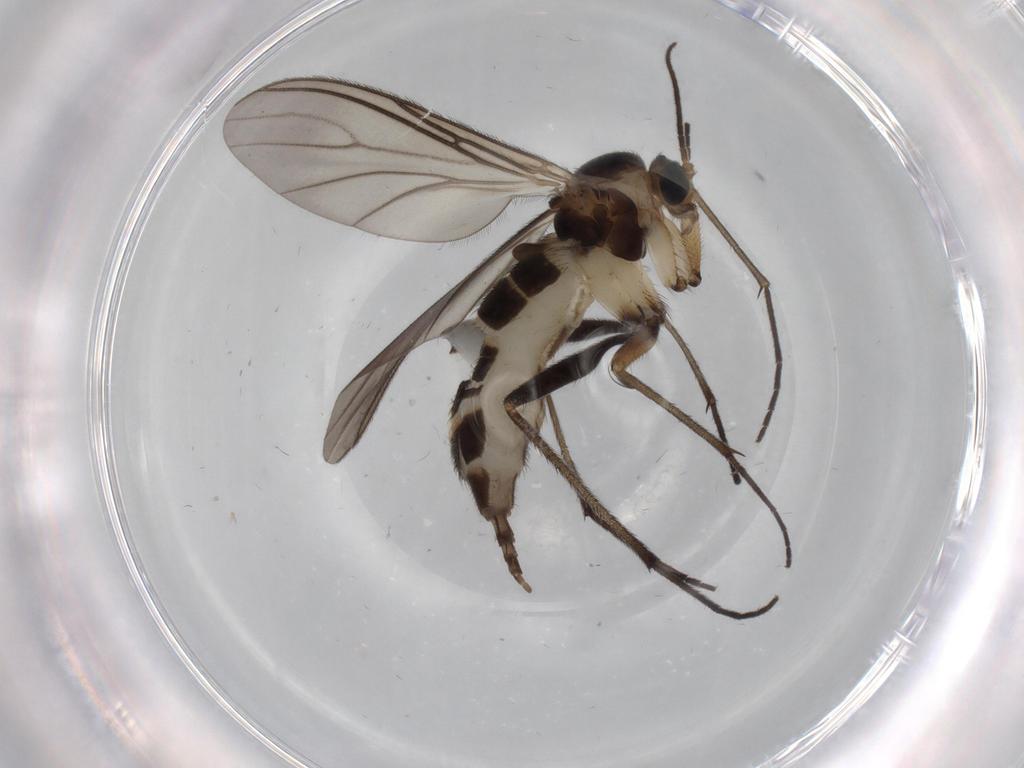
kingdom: Animalia
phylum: Arthropoda
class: Insecta
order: Diptera
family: Sciaridae
